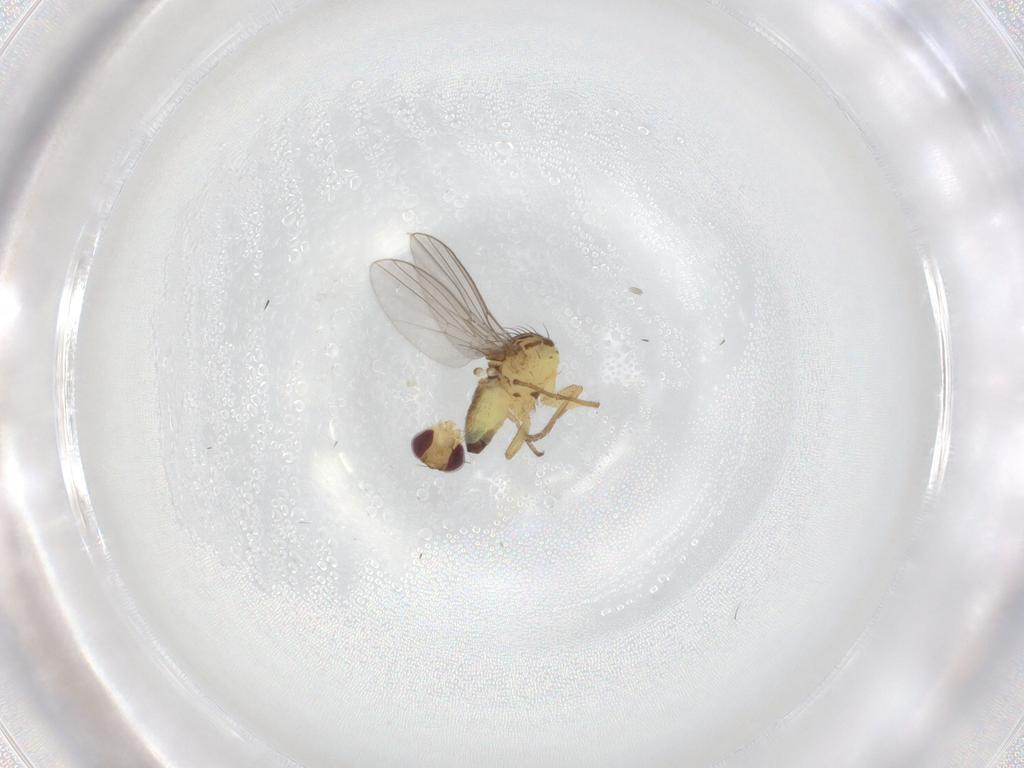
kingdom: Animalia
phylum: Arthropoda
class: Insecta
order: Diptera
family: Agromyzidae
